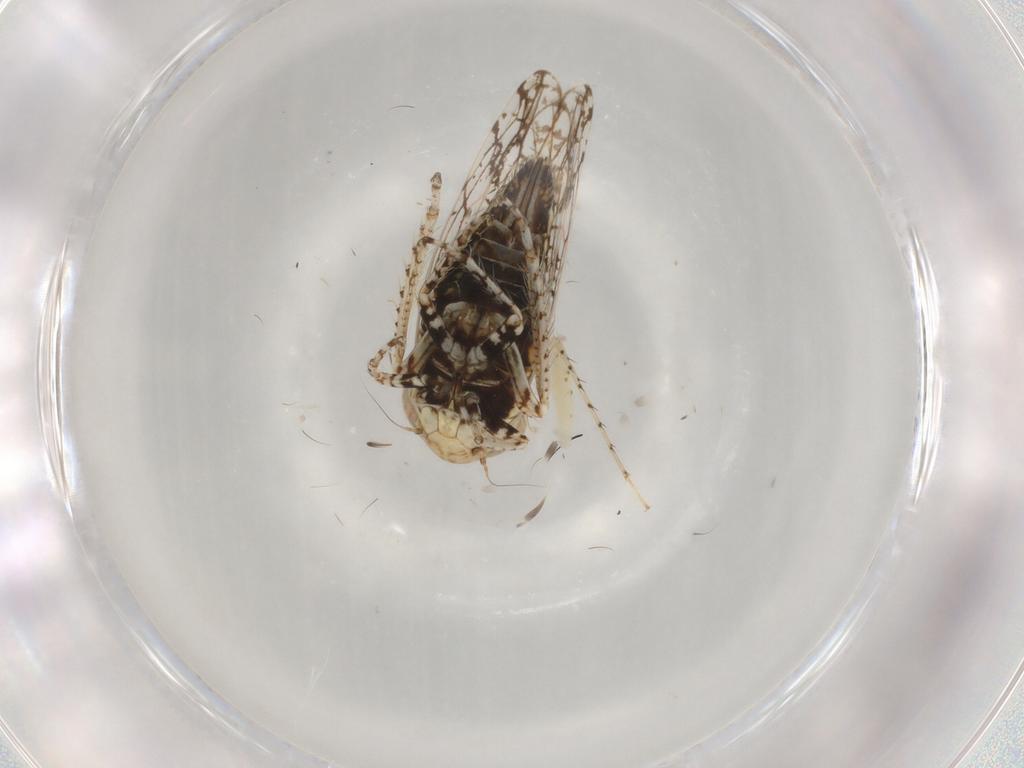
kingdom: Animalia
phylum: Arthropoda
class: Insecta
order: Hemiptera
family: Cicadellidae
